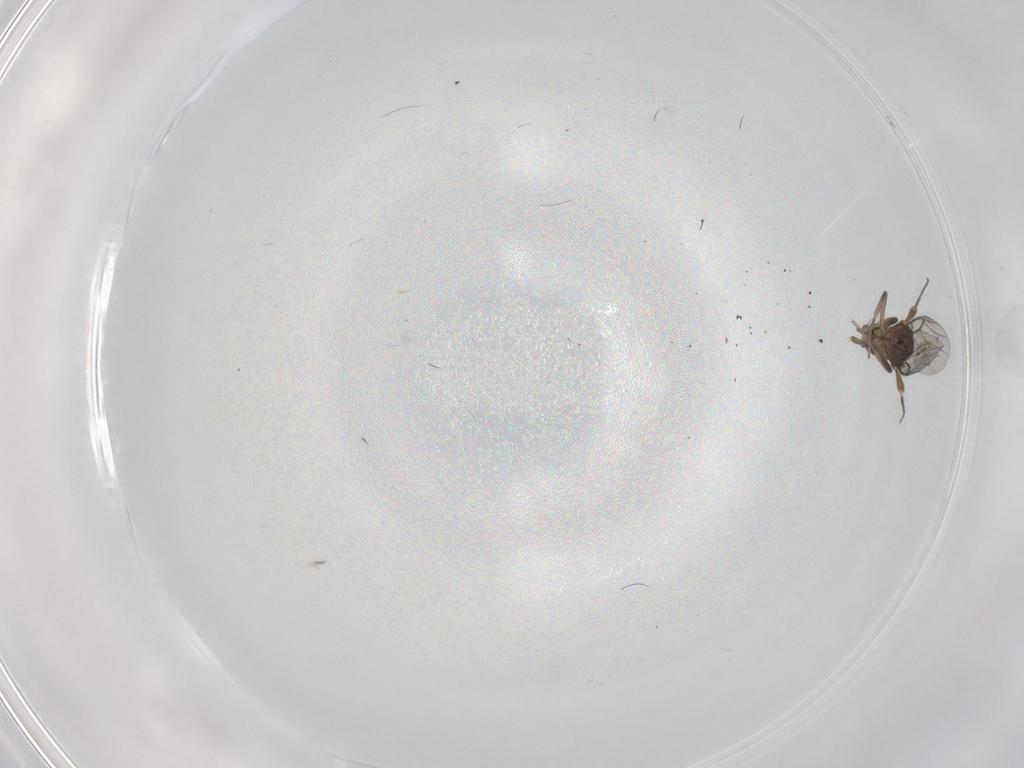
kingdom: Animalia
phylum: Arthropoda
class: Insecta
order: Diptera
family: Phoridae
